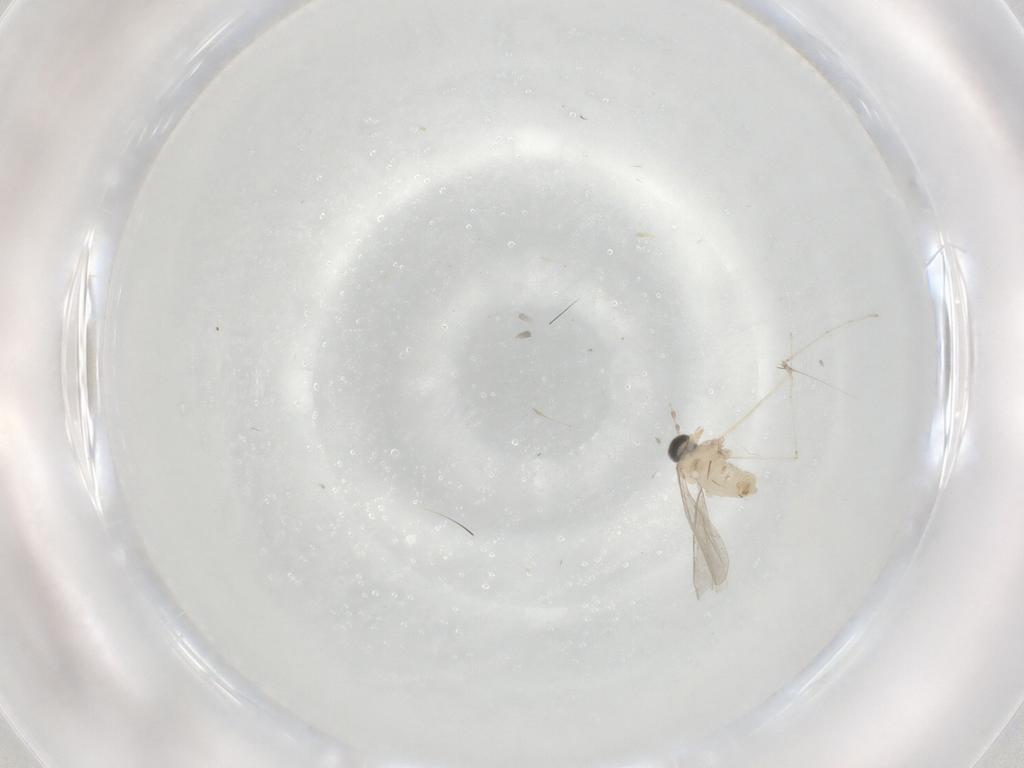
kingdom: Animalia
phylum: Arthropoda
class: Insecta
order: Diptera
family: Cecidomyiidae
